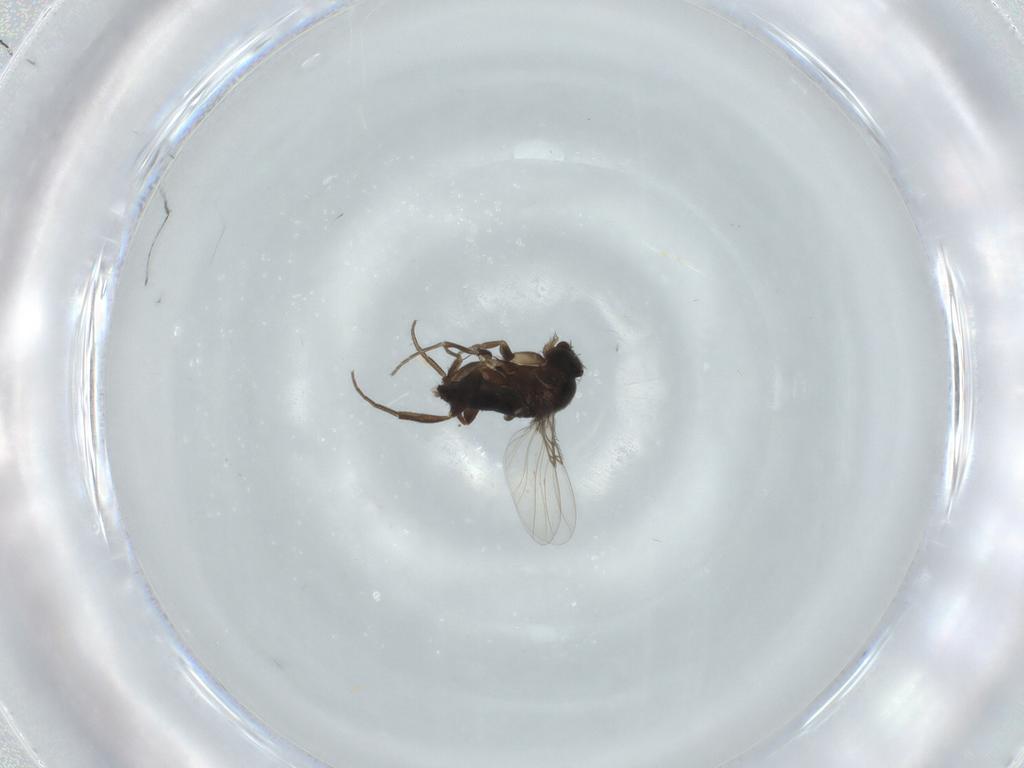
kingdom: Animalia
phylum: Arthropoda
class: Insecta
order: Diptera
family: Phoridae
